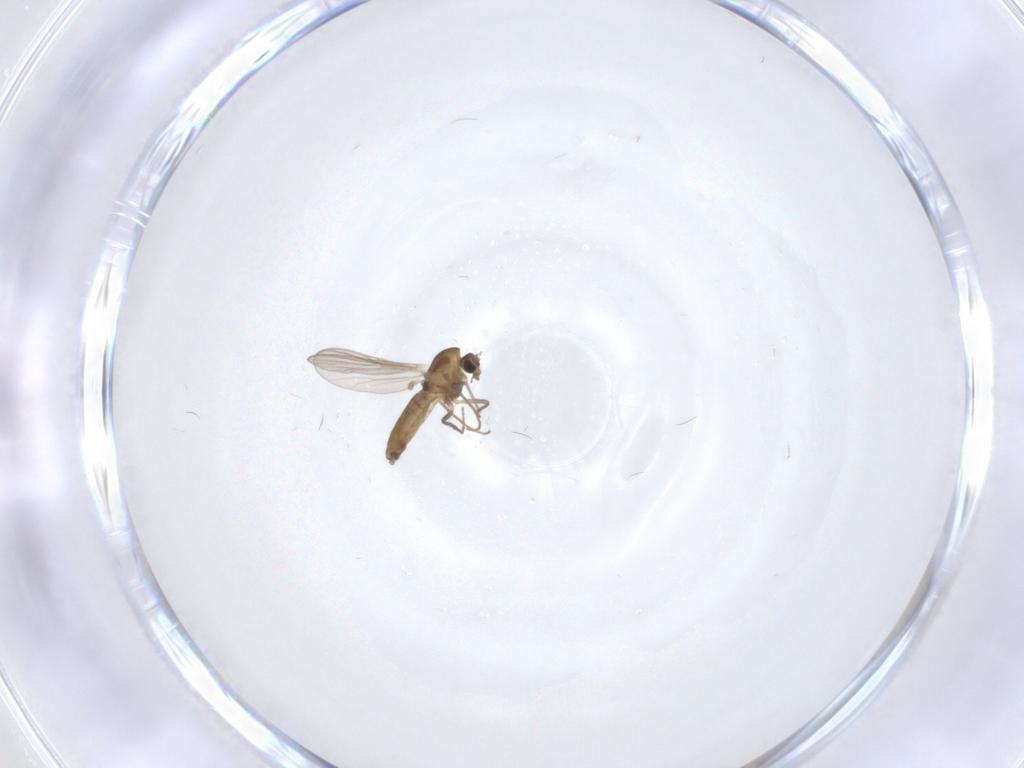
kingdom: Animalia
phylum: Arthropoda
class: Insecta
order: Diptera
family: Chironomidae
